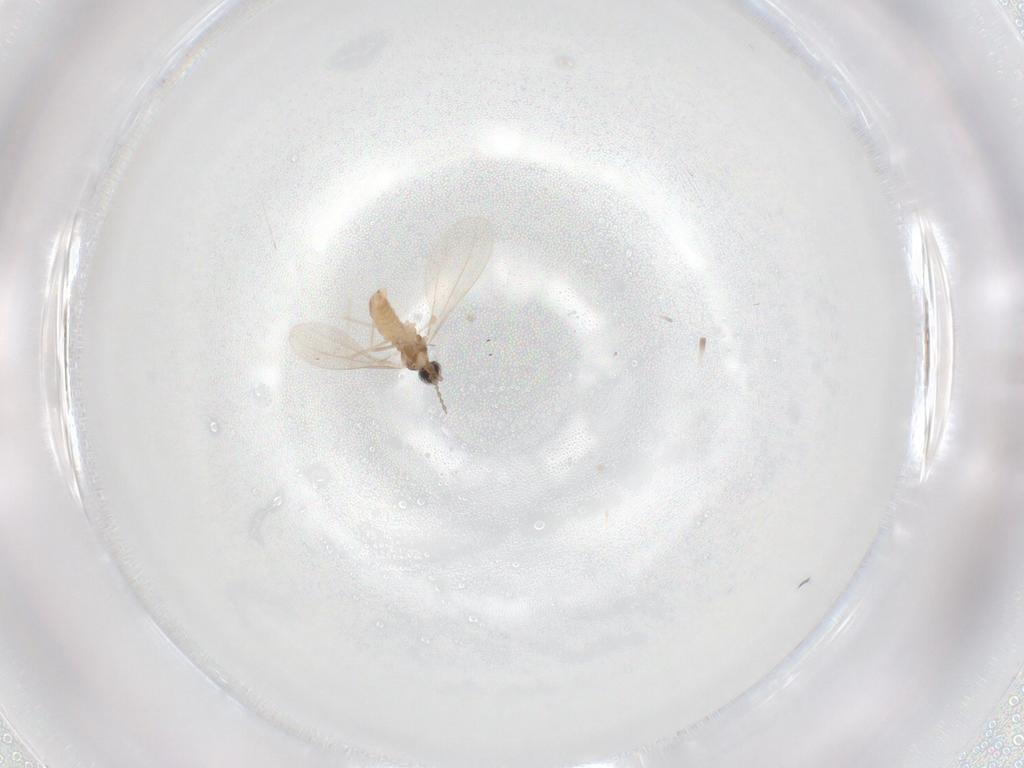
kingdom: Animalia
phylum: Arthropoda
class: Insecta
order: Diptera
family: Cecidomyiidae
